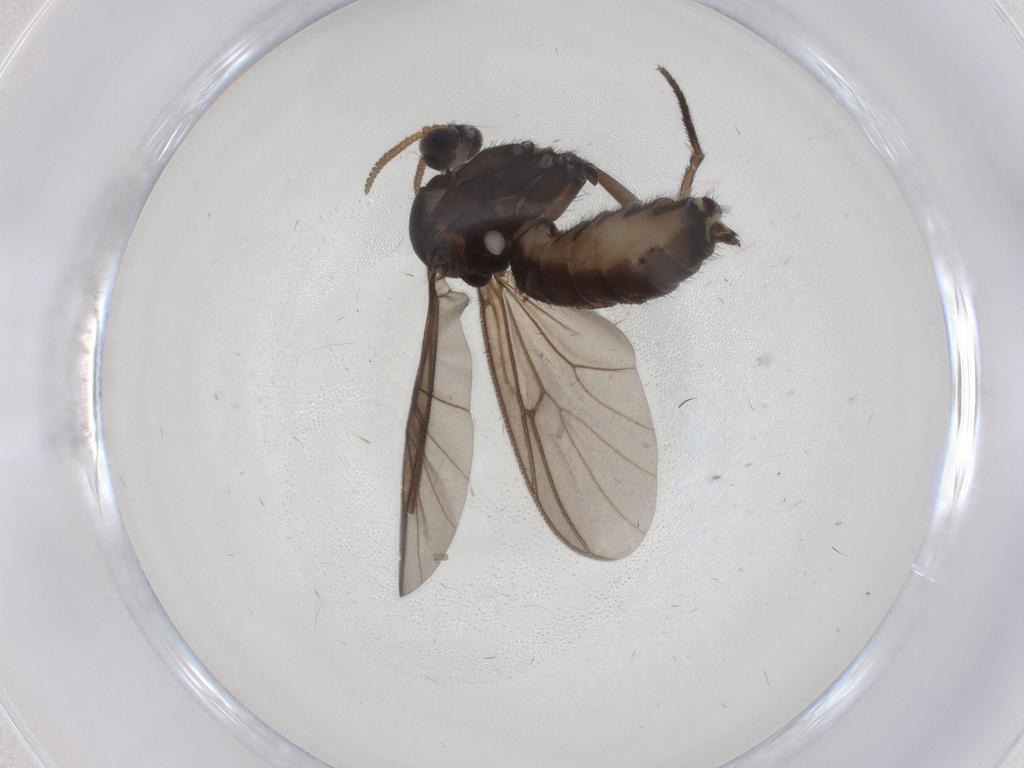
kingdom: Animalia
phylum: Arthropoda
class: Insecta
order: Diptera
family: Mycetophilidae
